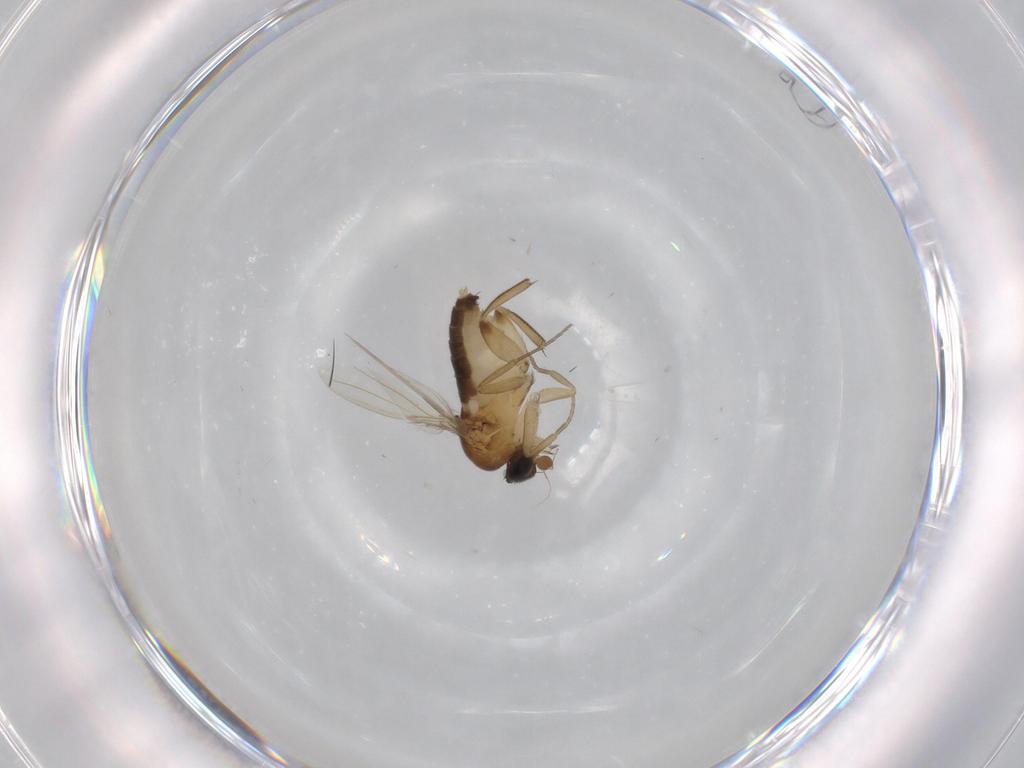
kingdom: Animalia
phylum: Arthropoda
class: Insecta
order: Diptera
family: Phoridae
